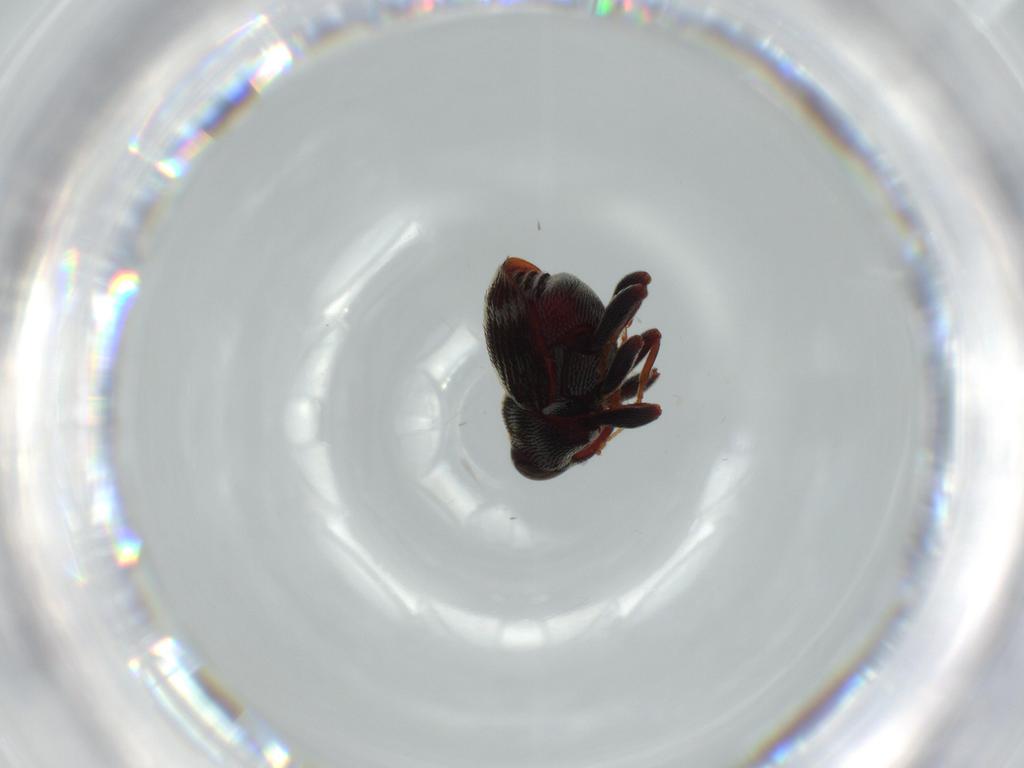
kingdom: Animalia
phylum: Arthropoda
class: Insecta
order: Coleoptera
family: Curculionidae
